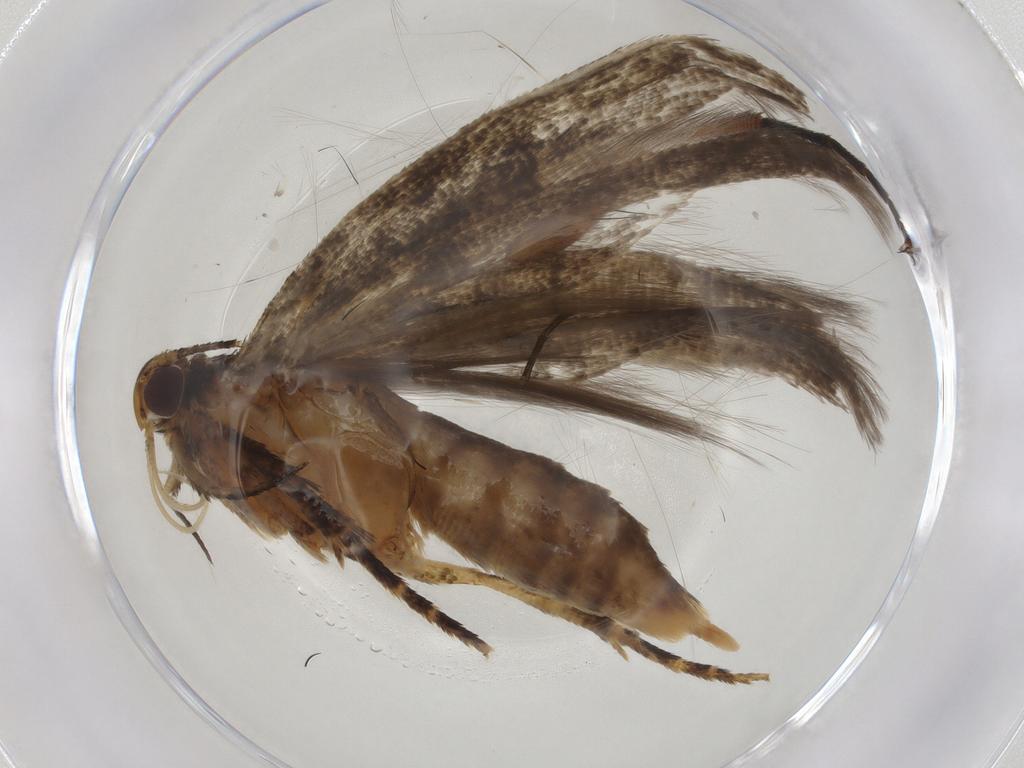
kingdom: Animalia
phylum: Arthropoda
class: Insecta
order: Lepidoptera
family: Gelechiidae
